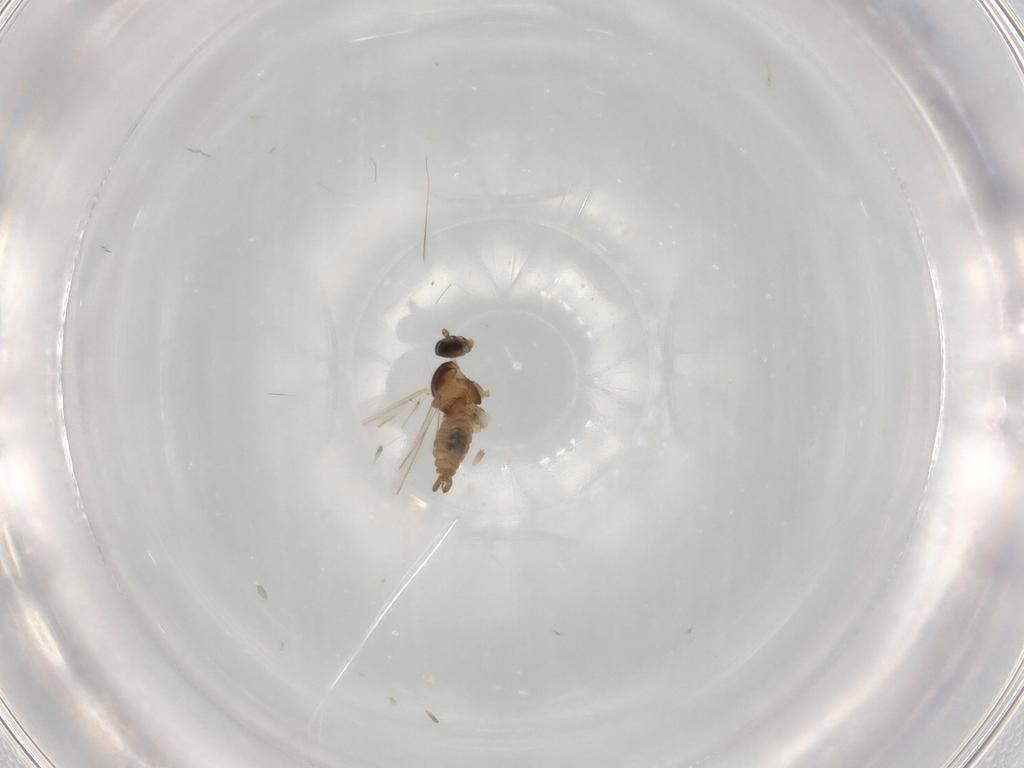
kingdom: Animalia
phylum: Arthropoda
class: Insecta
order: Diptera
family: Cecidomyiidae
